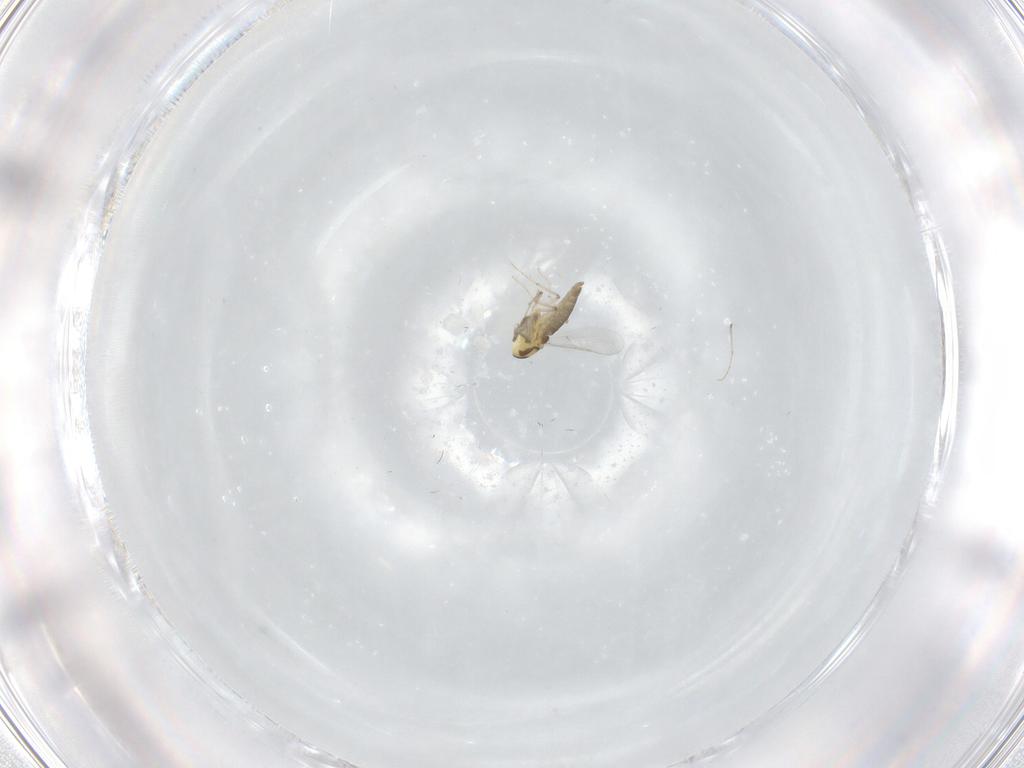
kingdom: Animalia
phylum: Arthropoda
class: Insecta
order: Diptera
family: Chironomidae
